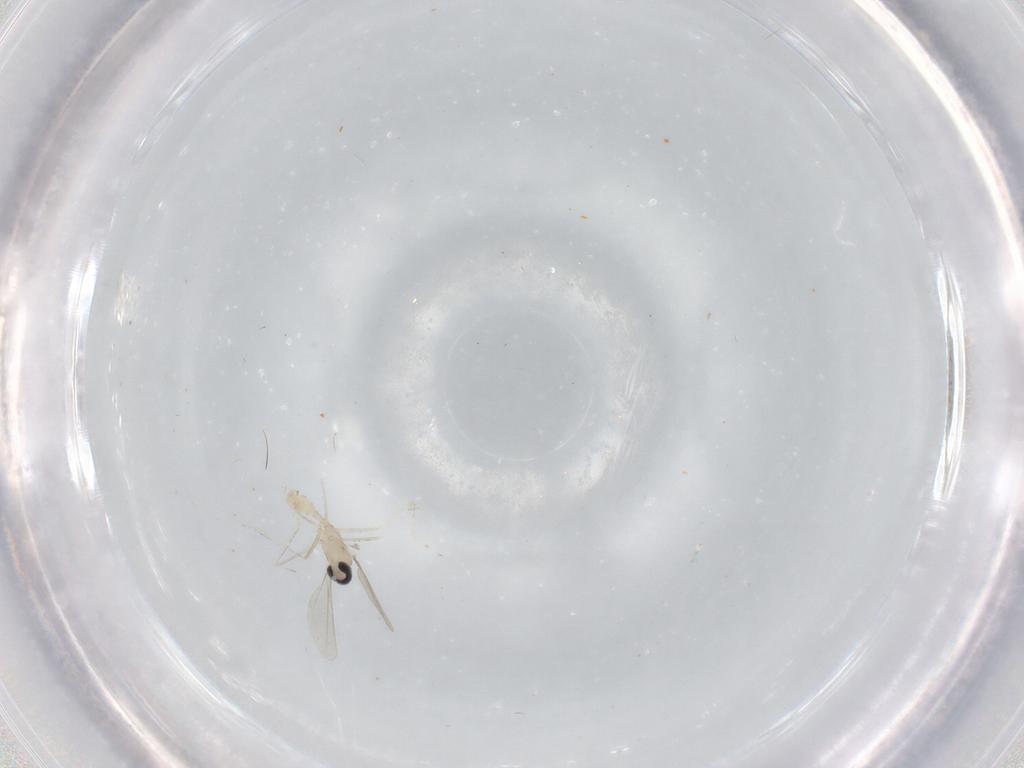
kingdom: Animalia
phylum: Arthropoda
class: Insecta
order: Diptera
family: Cecidomyiidae
